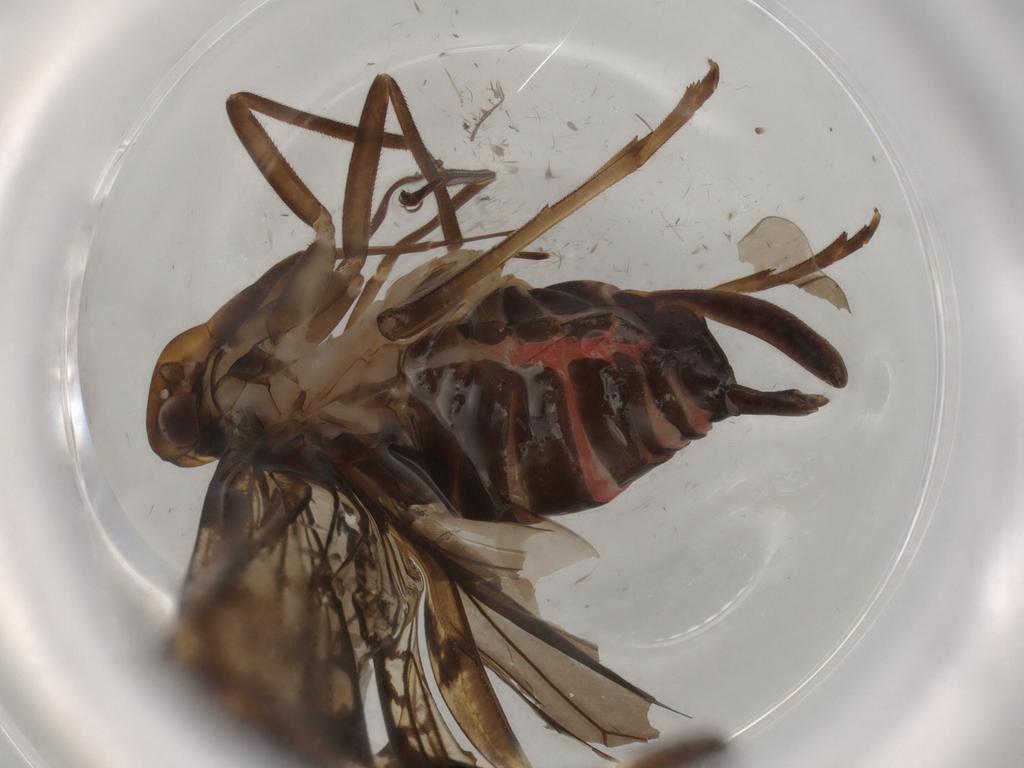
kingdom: Animalia
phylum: Arthropoda
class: Insecta
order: Hemiptera
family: Cixiidae
